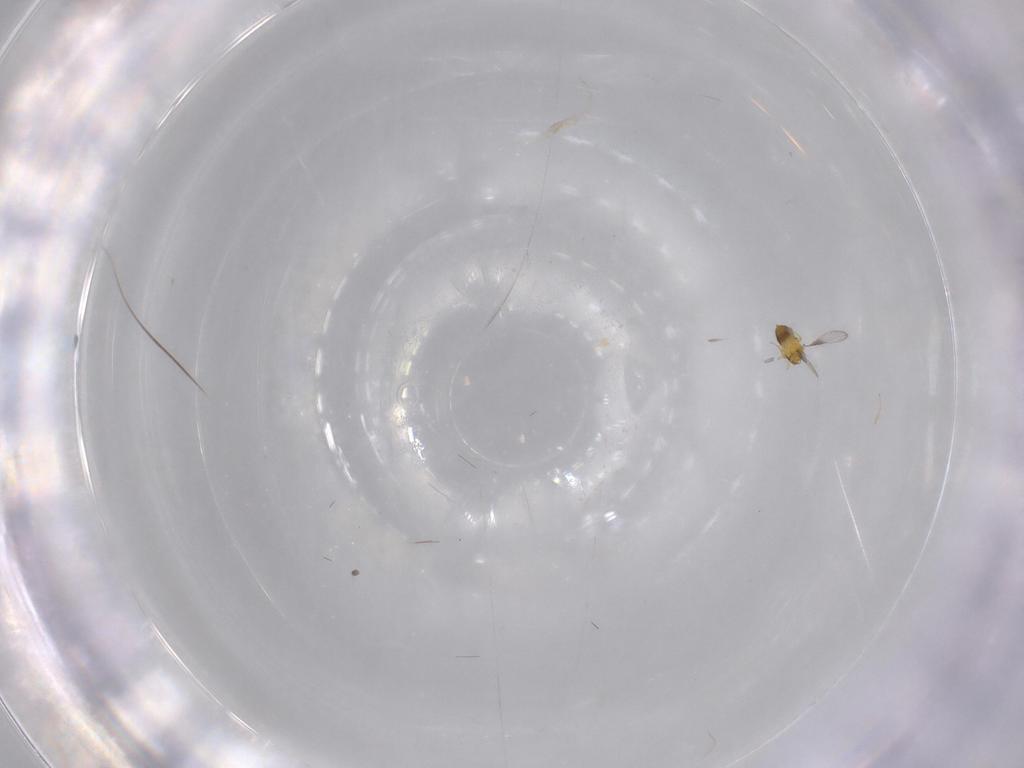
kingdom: Animalia
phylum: Arthropoda
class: Insecta
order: Hymenoptera
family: Trichogrammatidae
